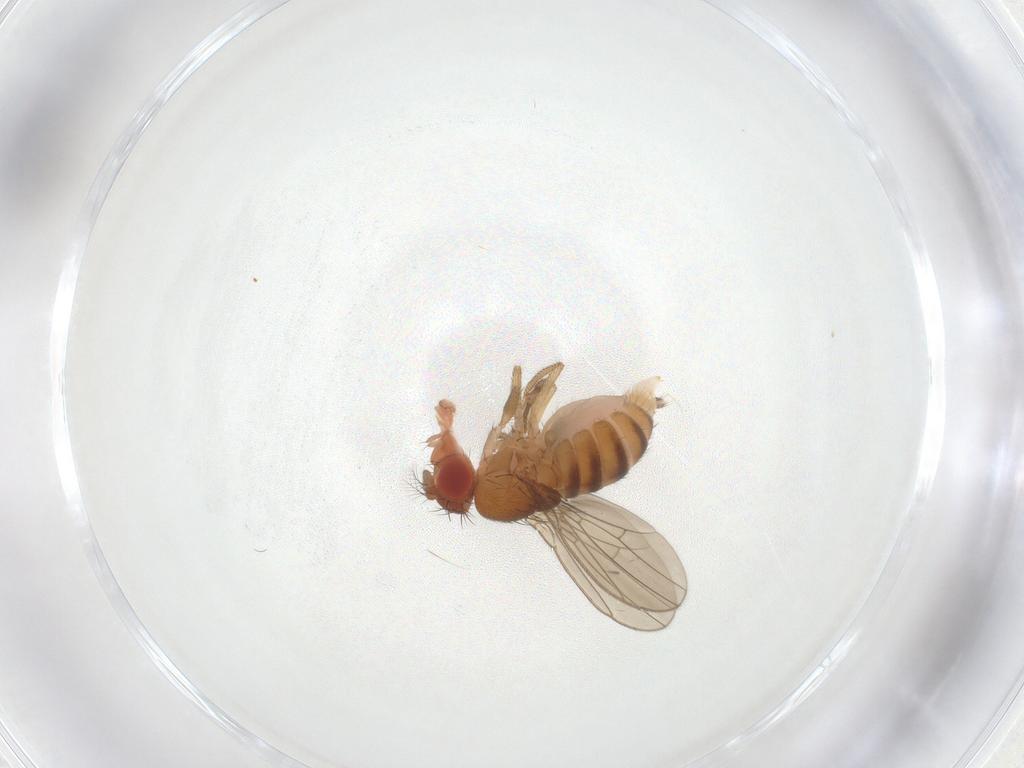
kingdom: Animalia
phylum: Arthropoda
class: Insecta
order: Diptera
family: Drosophilidae
